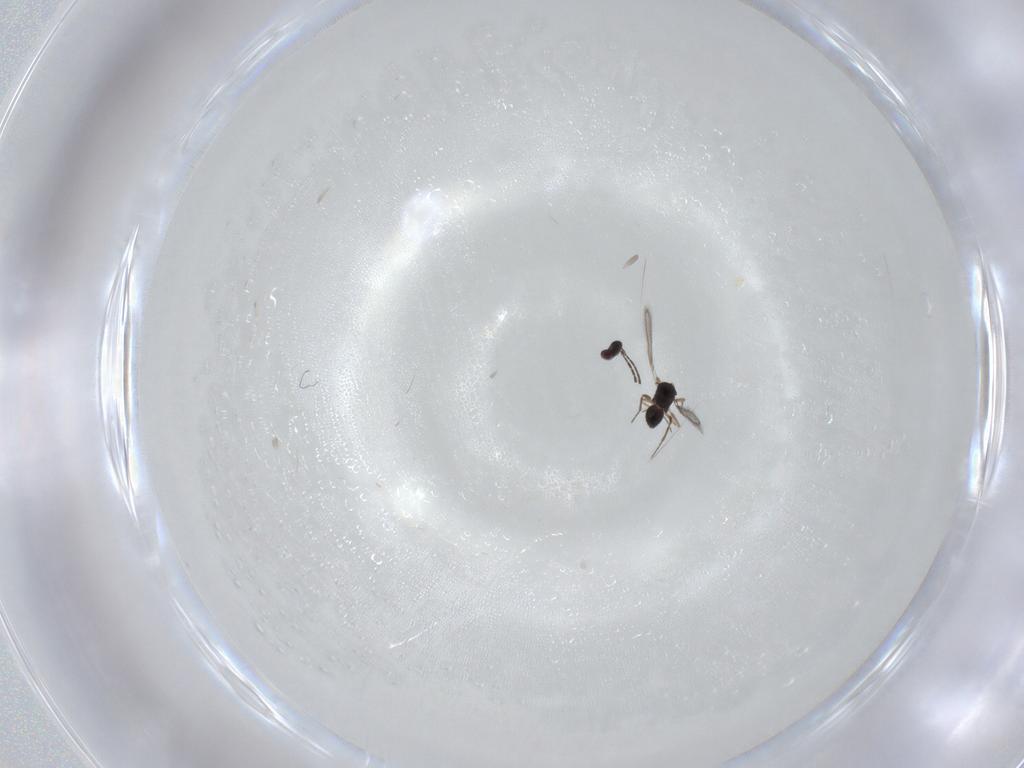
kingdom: Animalia
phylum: Arthropoda
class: Insecta
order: Hymenoptera
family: Mymaridae
